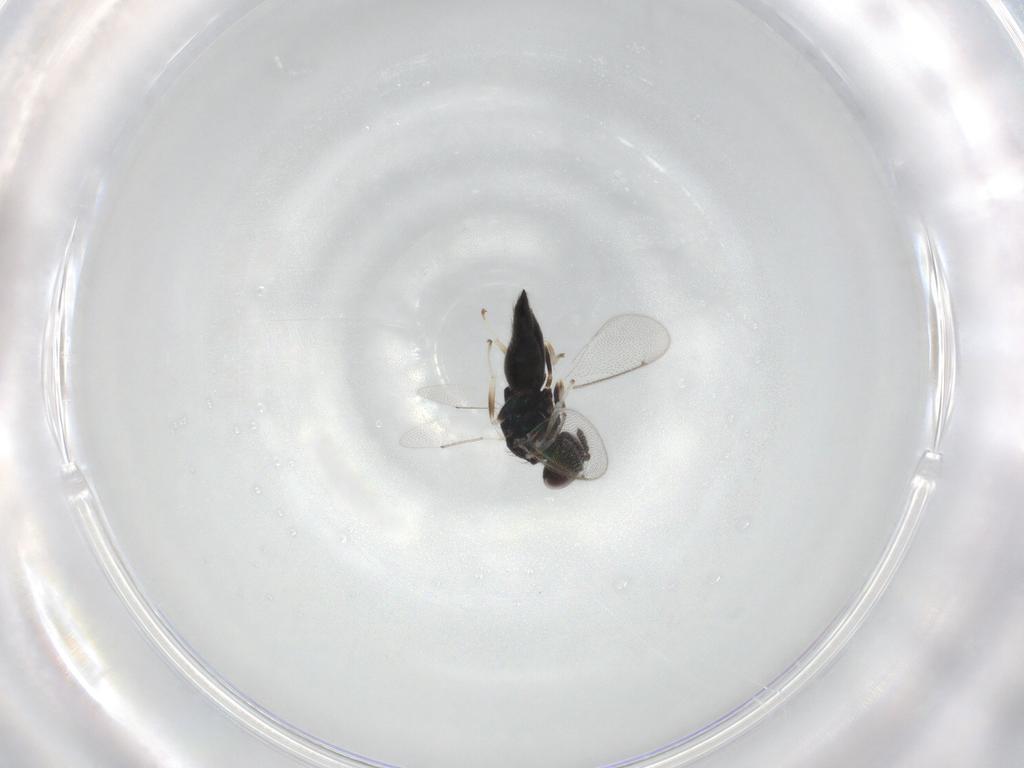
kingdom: Animalia
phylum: Arthropoda
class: Insecta
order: Hymenoptera
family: Eulophidae
